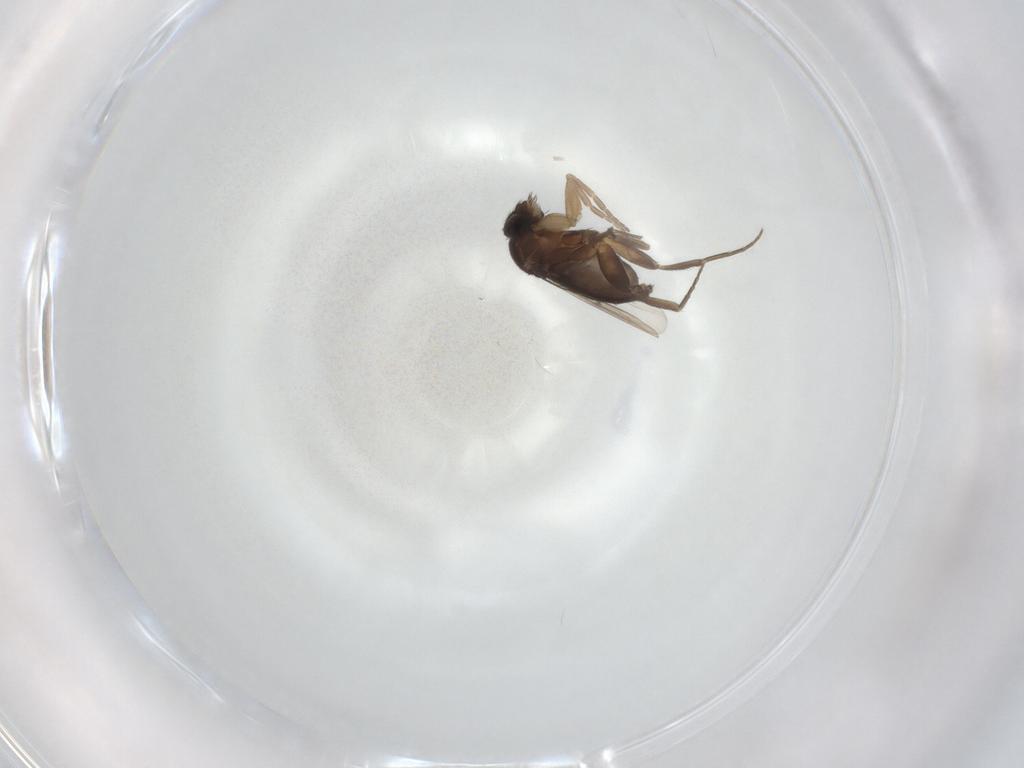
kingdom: Animalia
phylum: Arthropoda
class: Insecta
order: Diptera
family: Phoridae
